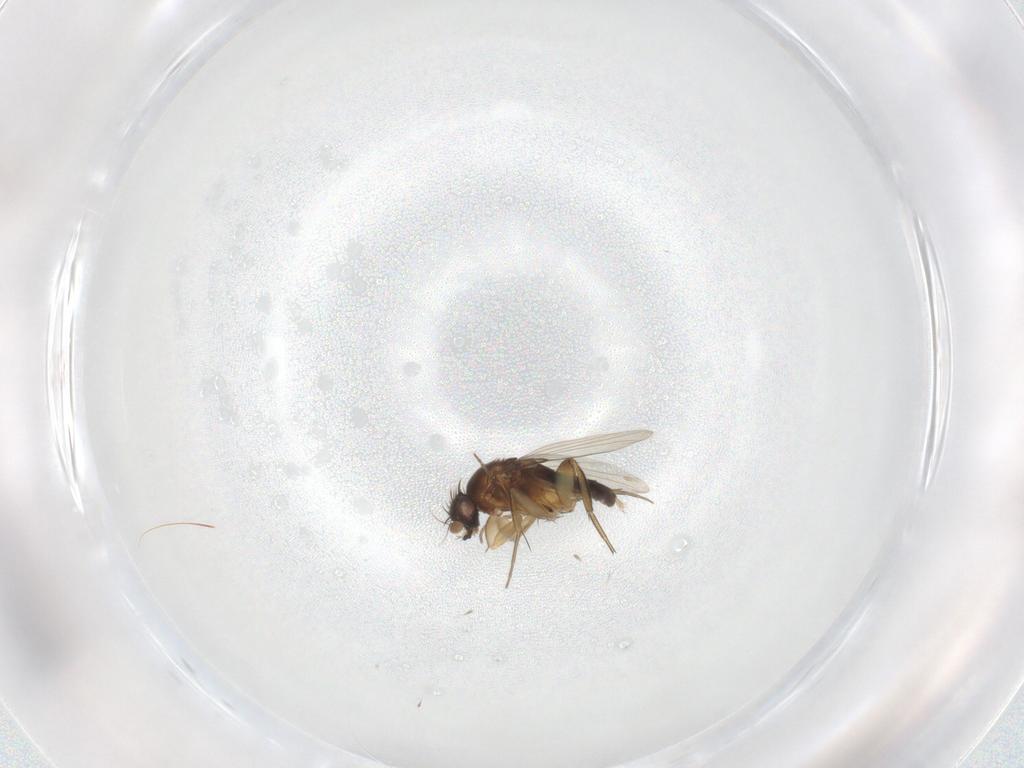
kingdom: Animalia
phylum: Arthropoda
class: Insecta
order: Diptera
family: Phoridae
